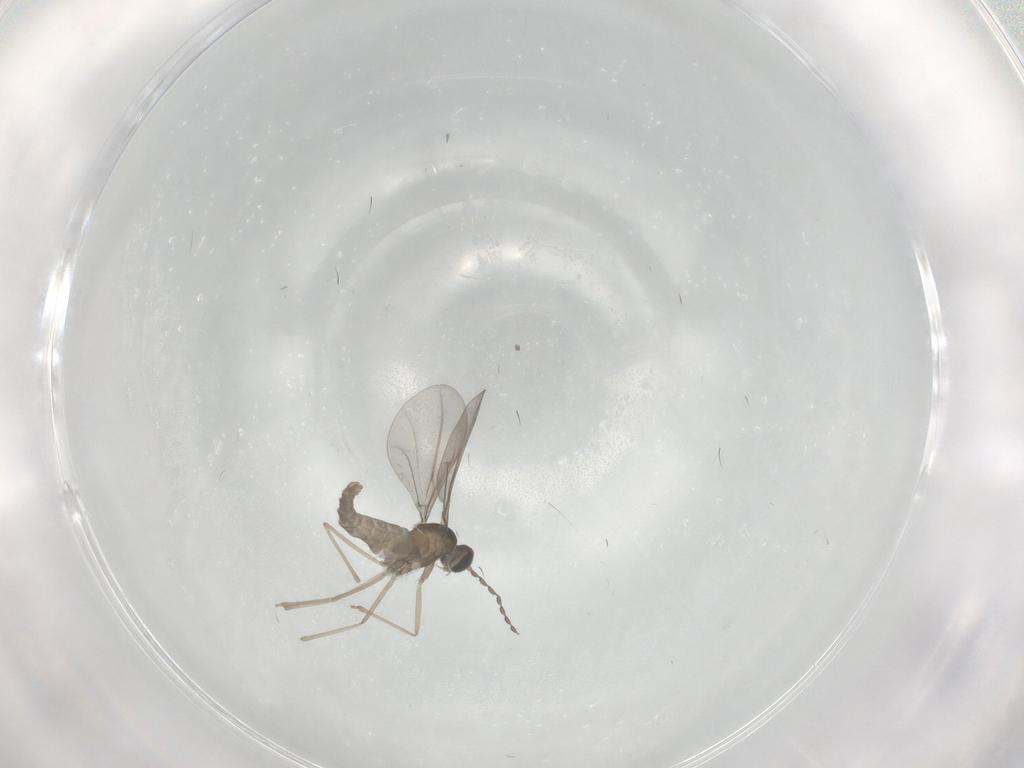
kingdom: Animalia
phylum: Arthropoda
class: Insecta
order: Diptera
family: Cecidomyiidae
